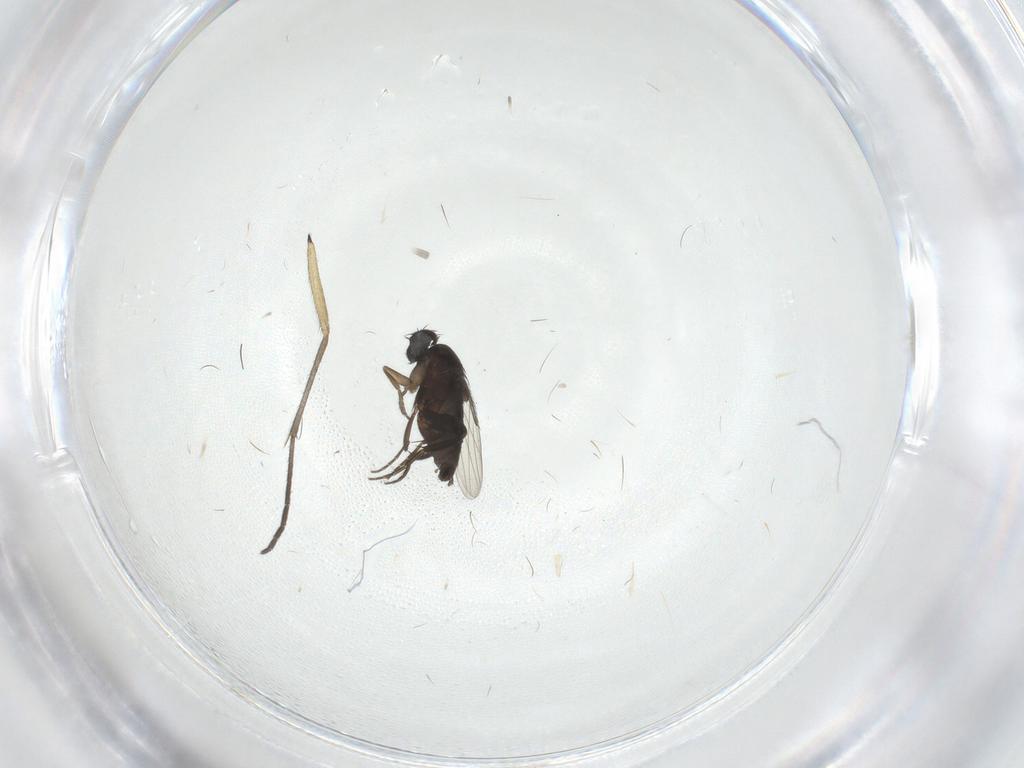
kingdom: Animalia
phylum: Arthropoda
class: Insecta
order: Diptera
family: Phoridae
